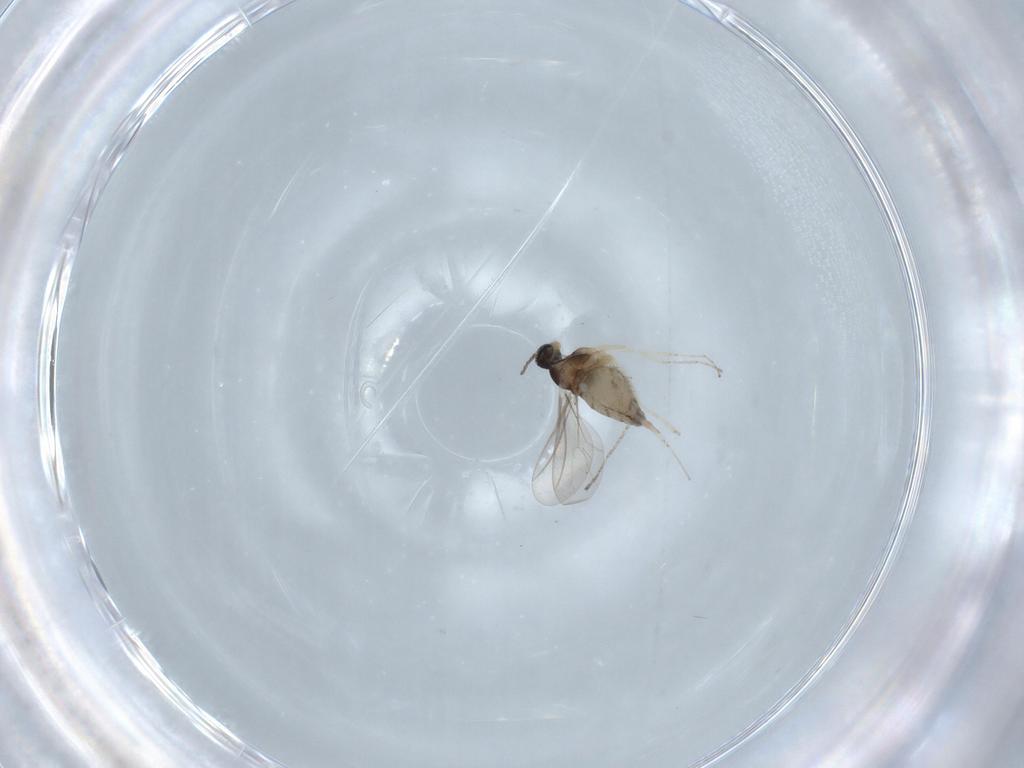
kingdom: Animalia
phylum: Arthropoda
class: Insecta
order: Diptera
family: Cecidomyiidae
